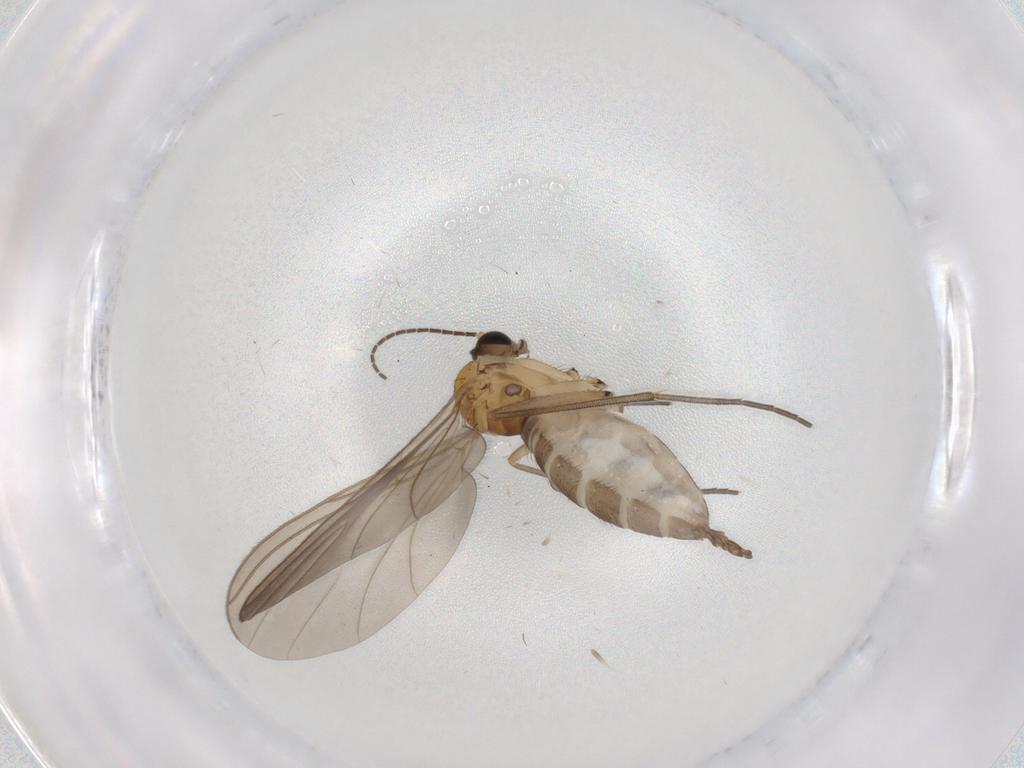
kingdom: Animalia
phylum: Arthropoda
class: Insecta
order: Diptera
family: Sciaridae
